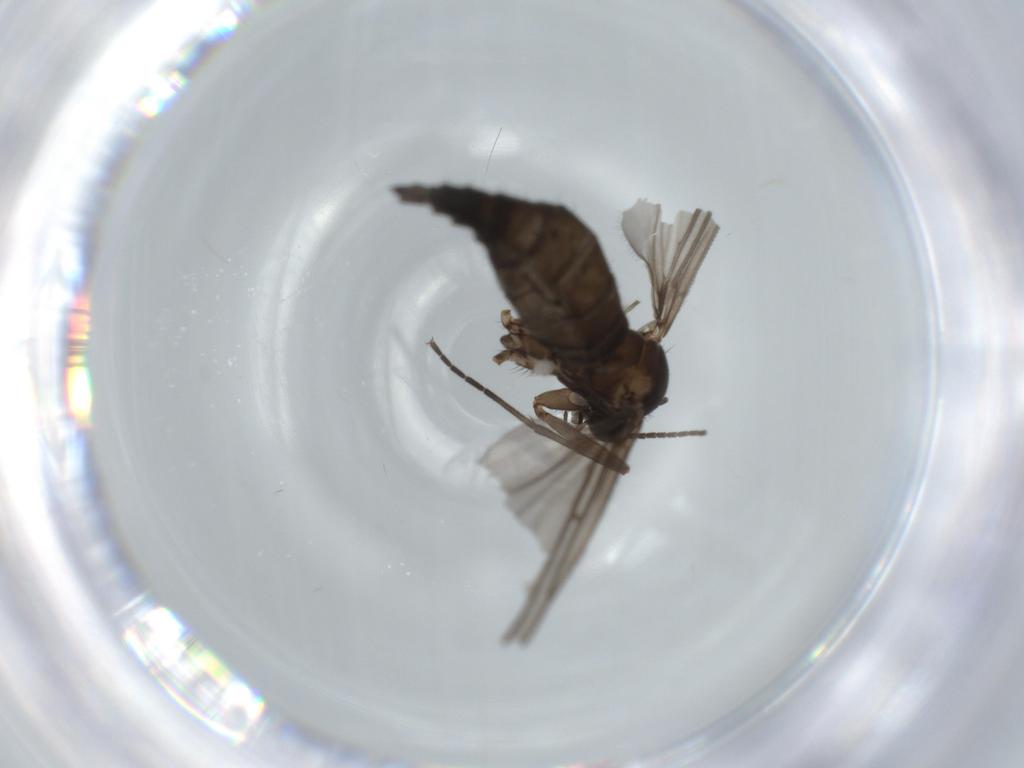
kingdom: Animalia
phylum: Arthropoda
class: Insecta
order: Diptera
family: Sciaridae
